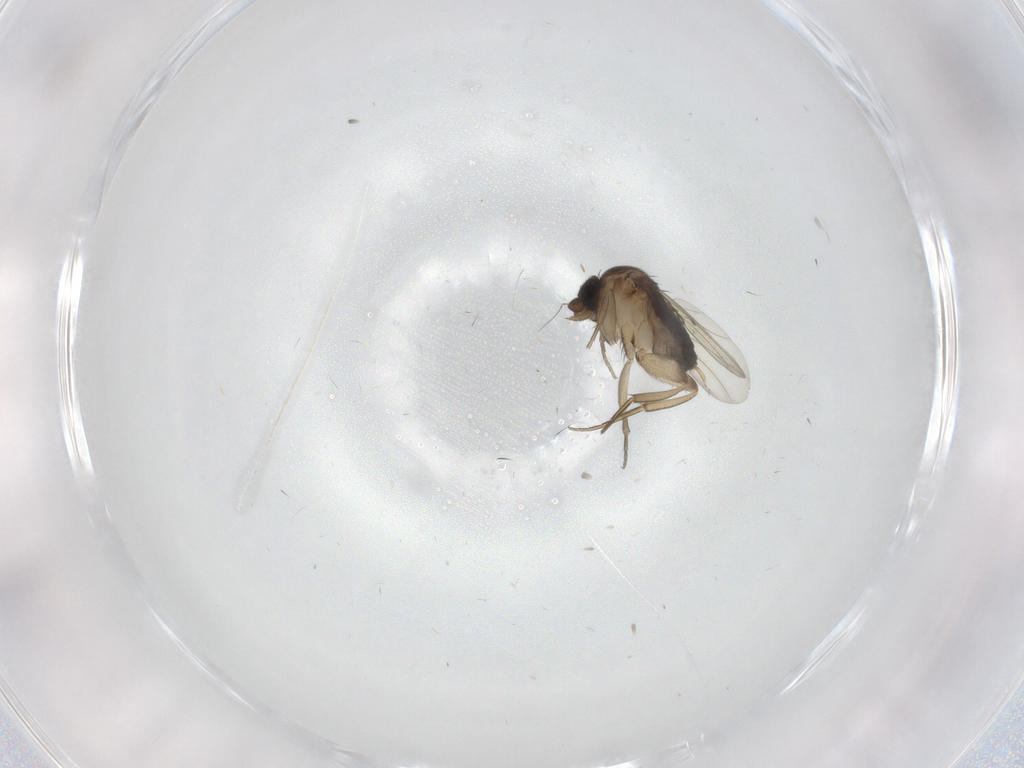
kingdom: Animalia
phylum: Arthropoda
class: Insecta
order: Diptera
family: Phoridae
